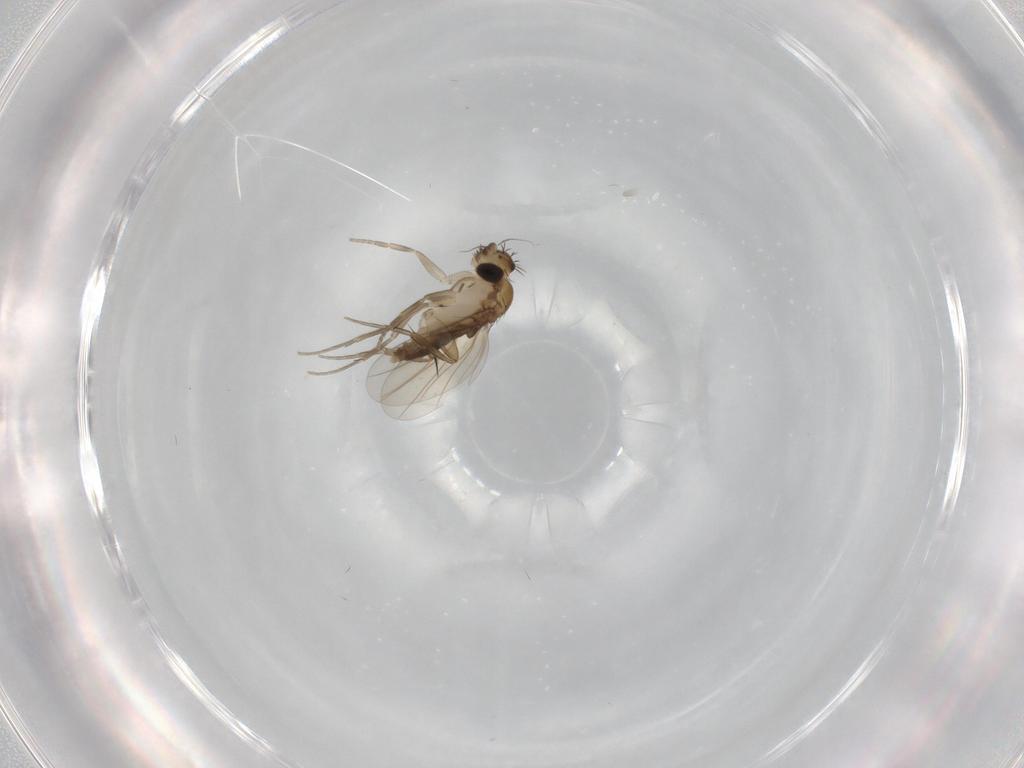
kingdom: Animalia
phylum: Arthropoda
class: Insecta
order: Diptera
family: Phoridae
